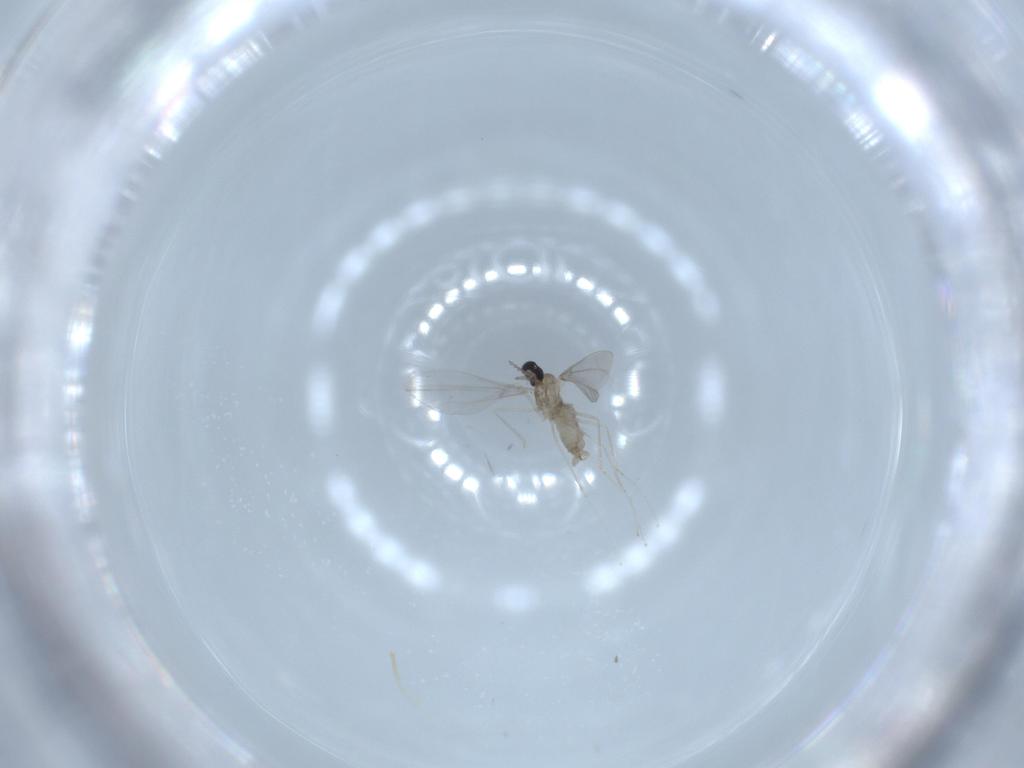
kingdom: Animalia
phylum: Arthropoda
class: Insecta
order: Diptera
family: Cecidomyiidae
